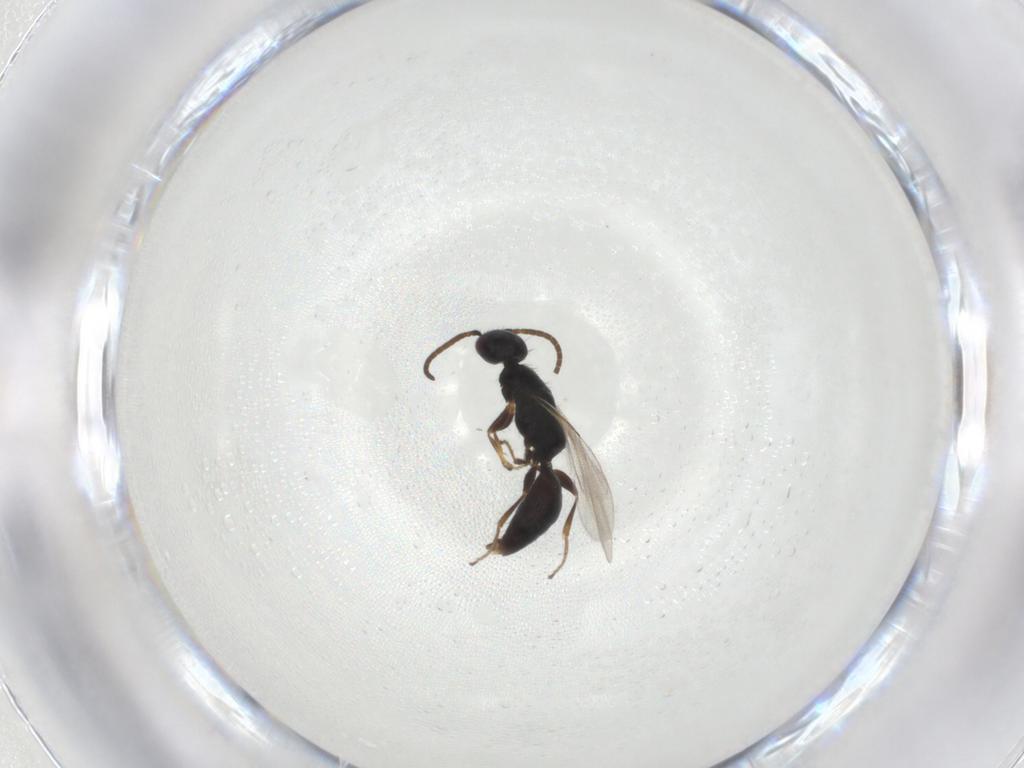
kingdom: Animalia
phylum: Arthropoda
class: Insecta
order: Hymenoptera
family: Bethylidae
